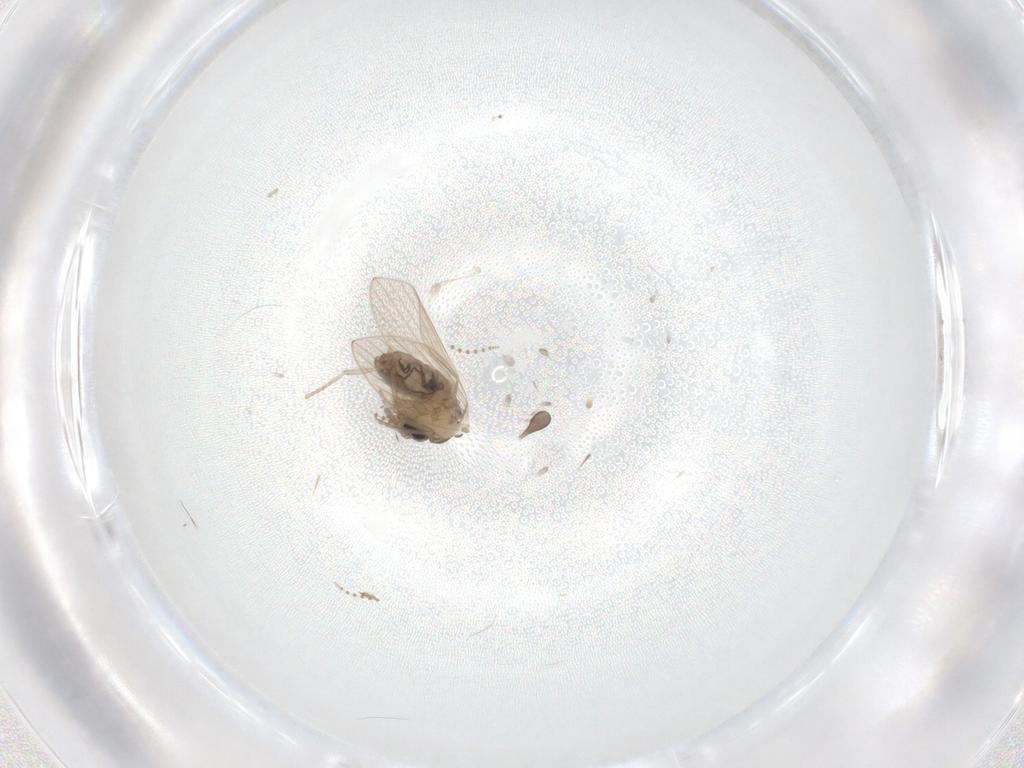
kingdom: Animalia
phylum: Arthropoda
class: Insecta
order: Diptera
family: Psychodidae
